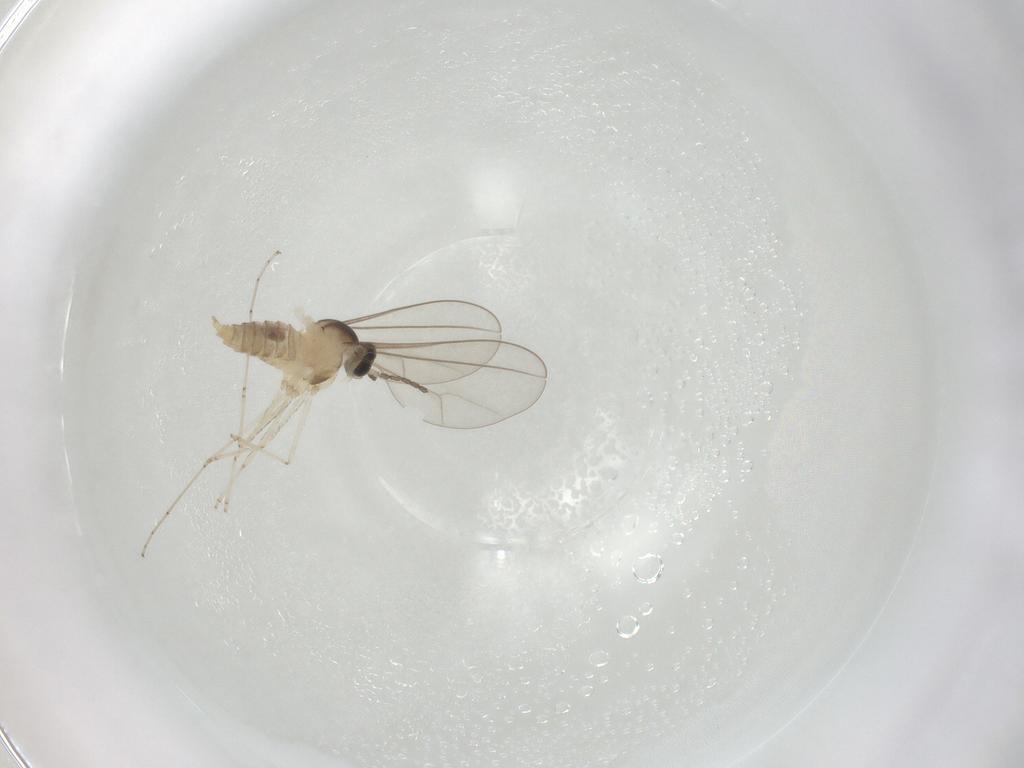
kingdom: Animalia
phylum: Arthropoda
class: Insecta
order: Diptera
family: Cecidomyiidae
